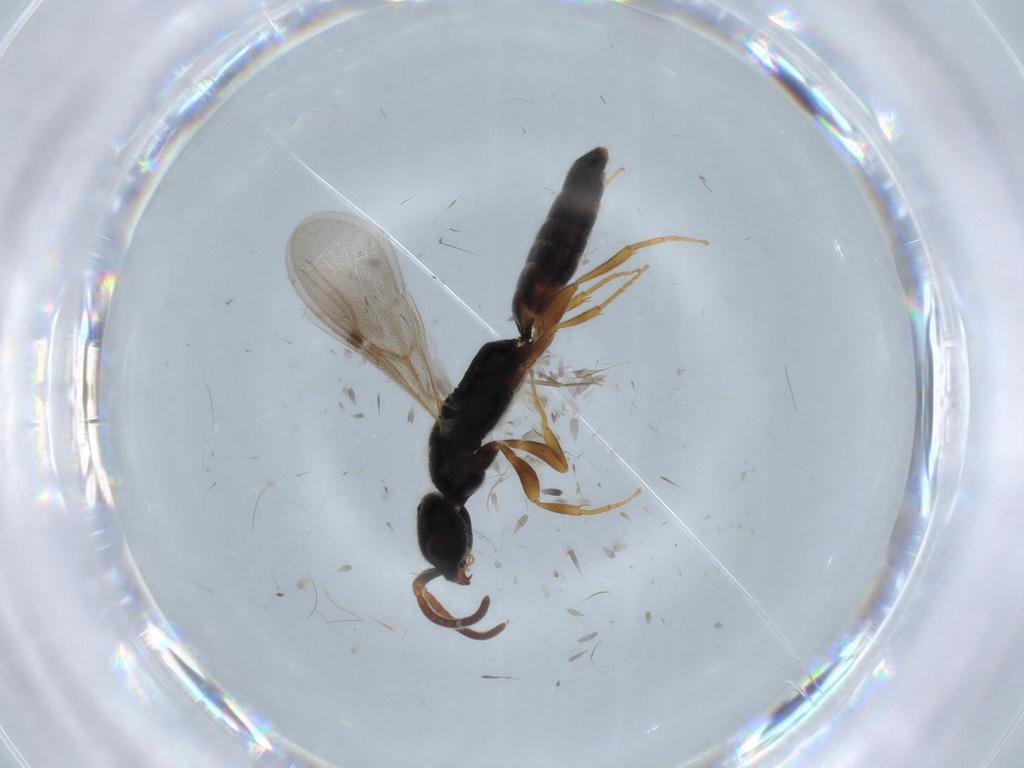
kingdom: Animalia
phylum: Arthropoda
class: Insecta
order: Hymenoptera
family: Bethylidae
